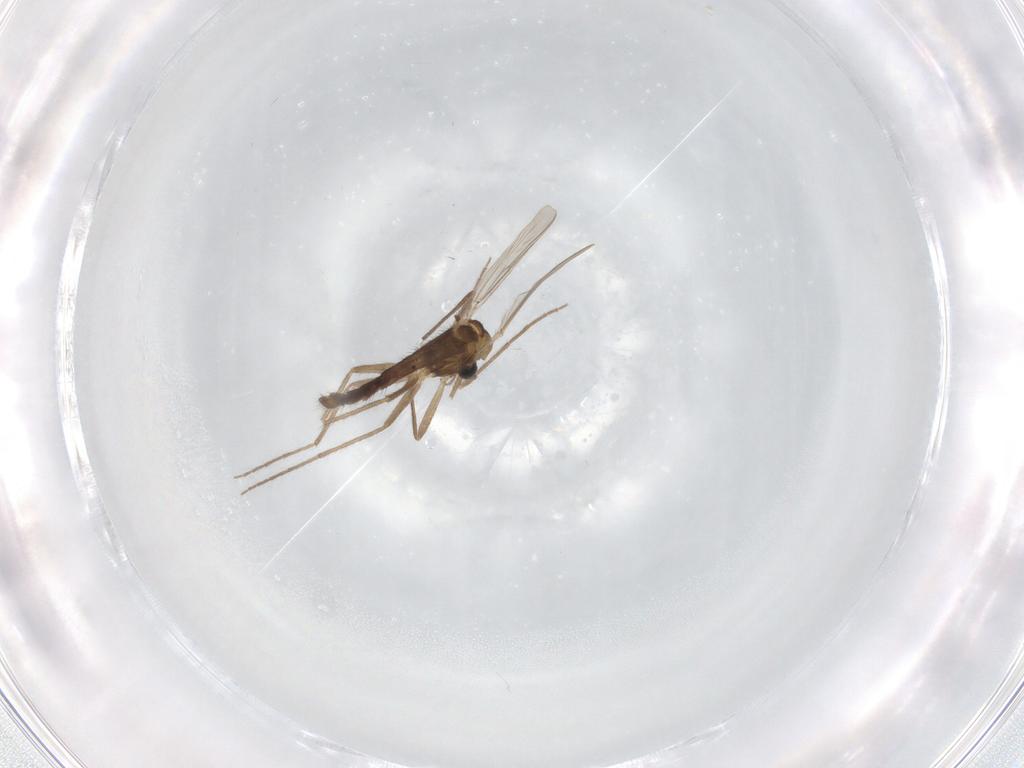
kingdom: Animalia
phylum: Arthropoda
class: Insecta
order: Diptera
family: Chironomidae
